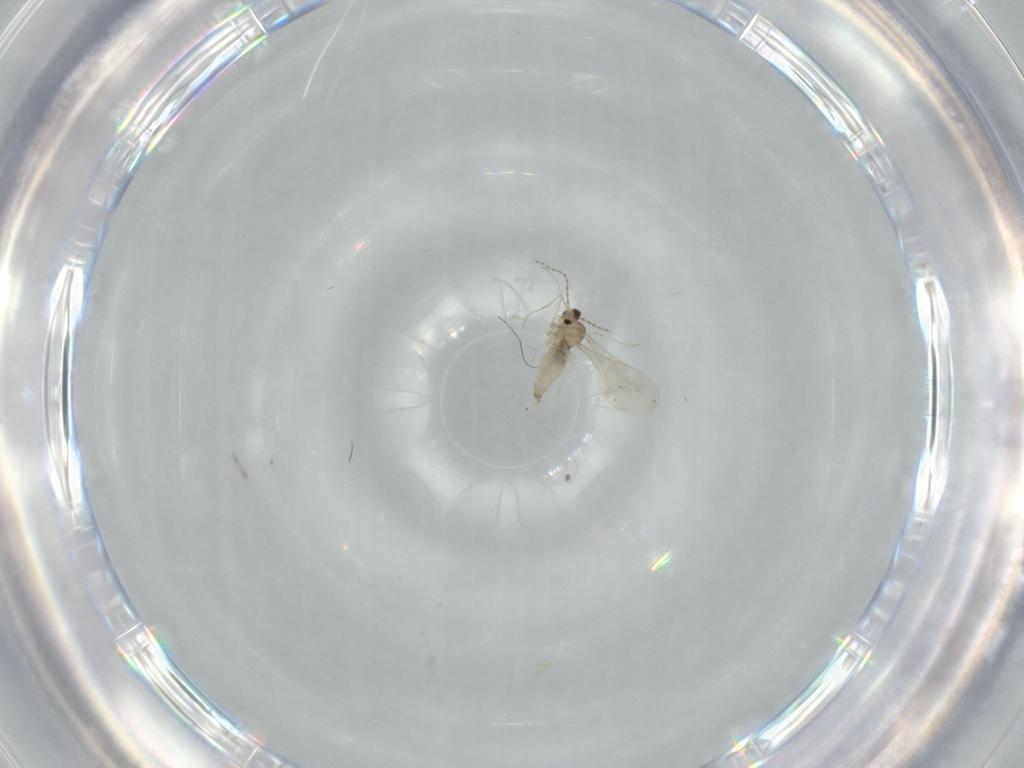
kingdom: Animalia
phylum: Arthropoda
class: Insecta
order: Diptera
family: Cecidomyiidae
